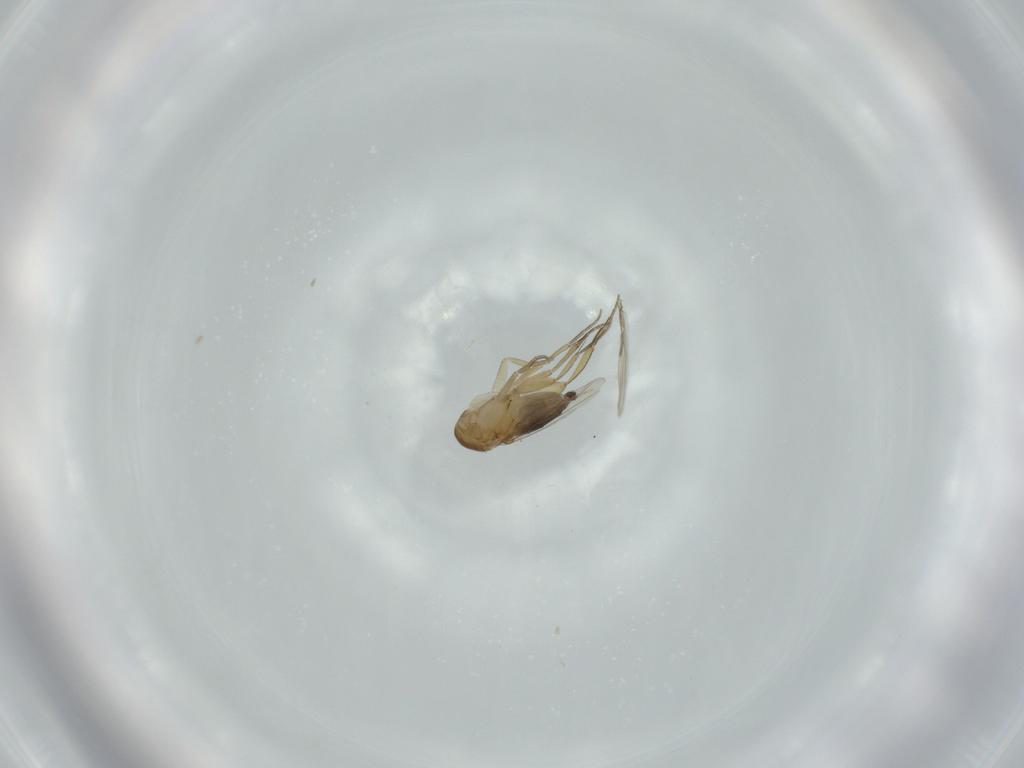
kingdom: Animalia
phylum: Arthropoda
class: Insecta
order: Diptera
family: Phoridae
